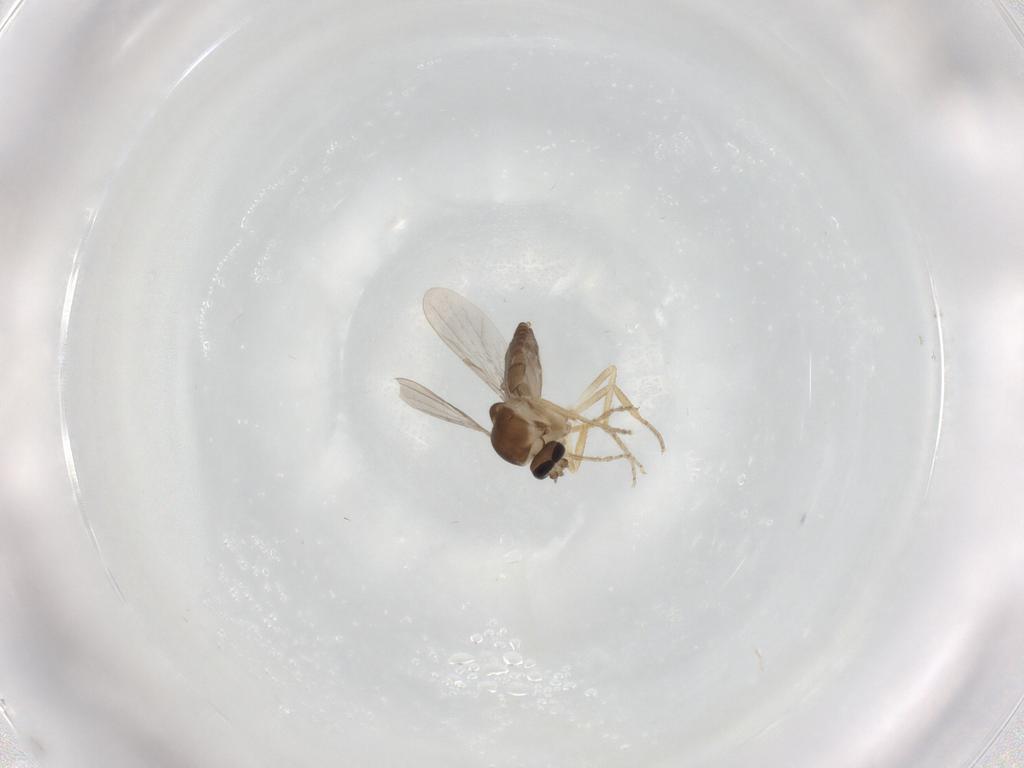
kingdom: Animalia
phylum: Arthropoda
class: Insecta
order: Diptera
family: Ceratopogonidae
